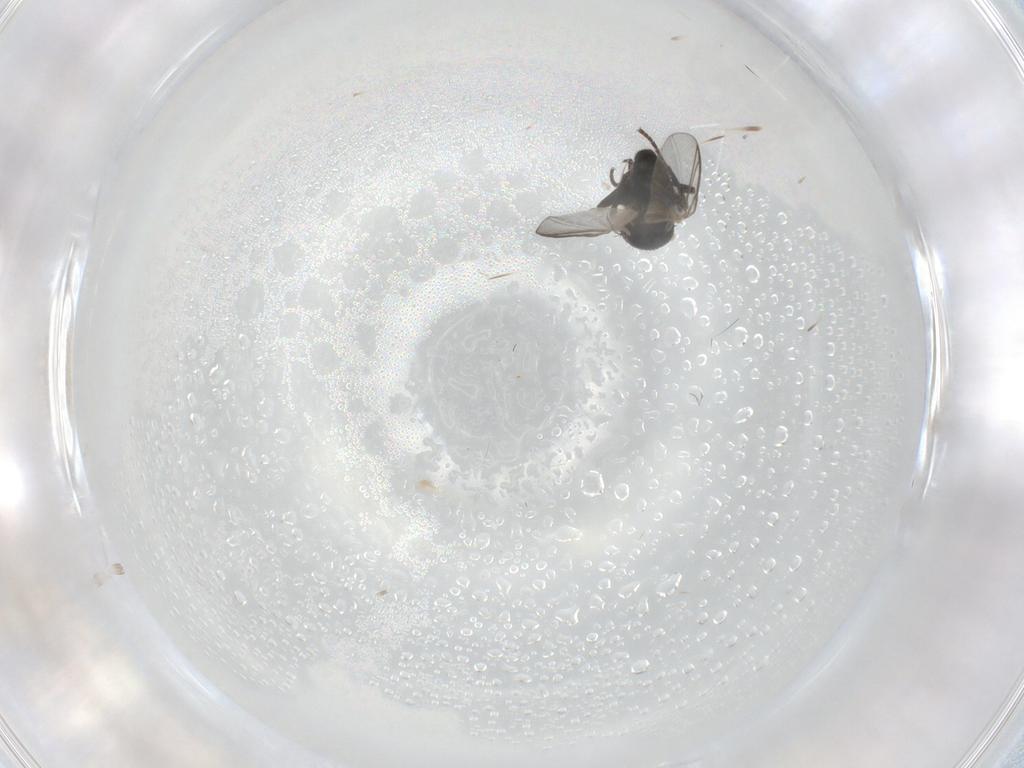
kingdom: Animalia
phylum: Arthropoda
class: Insecta
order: Diptera
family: Agromyzidae
